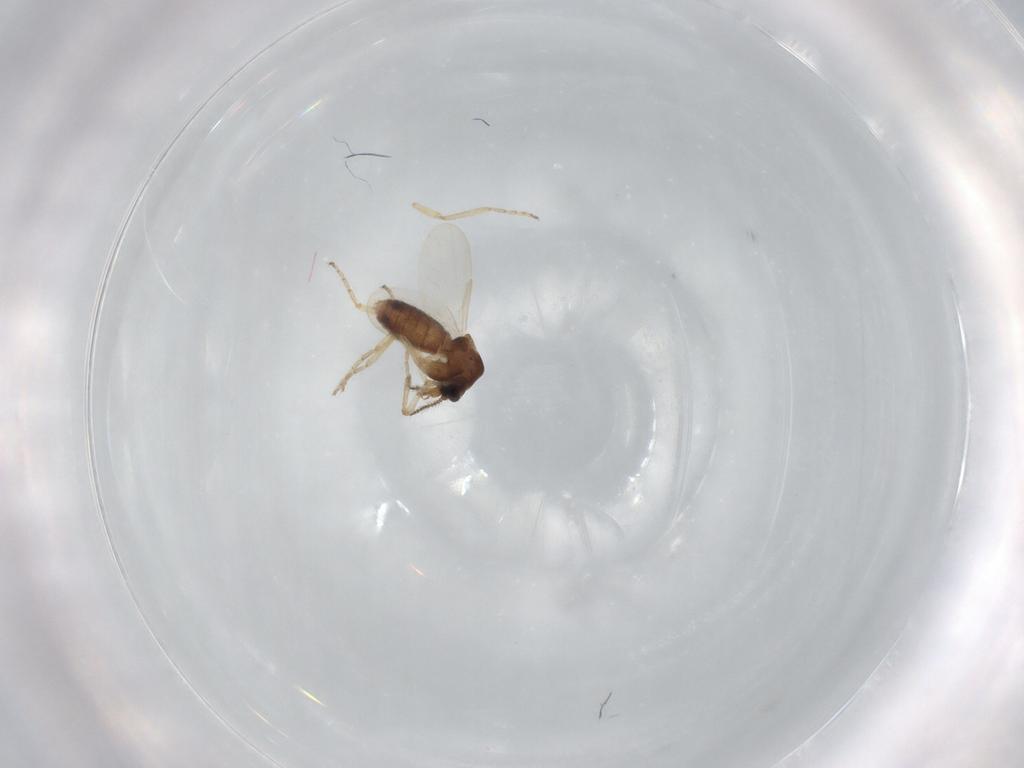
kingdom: Animalia
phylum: Arthropoda
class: Insecta
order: Diptera
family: Ceratopogonidae
